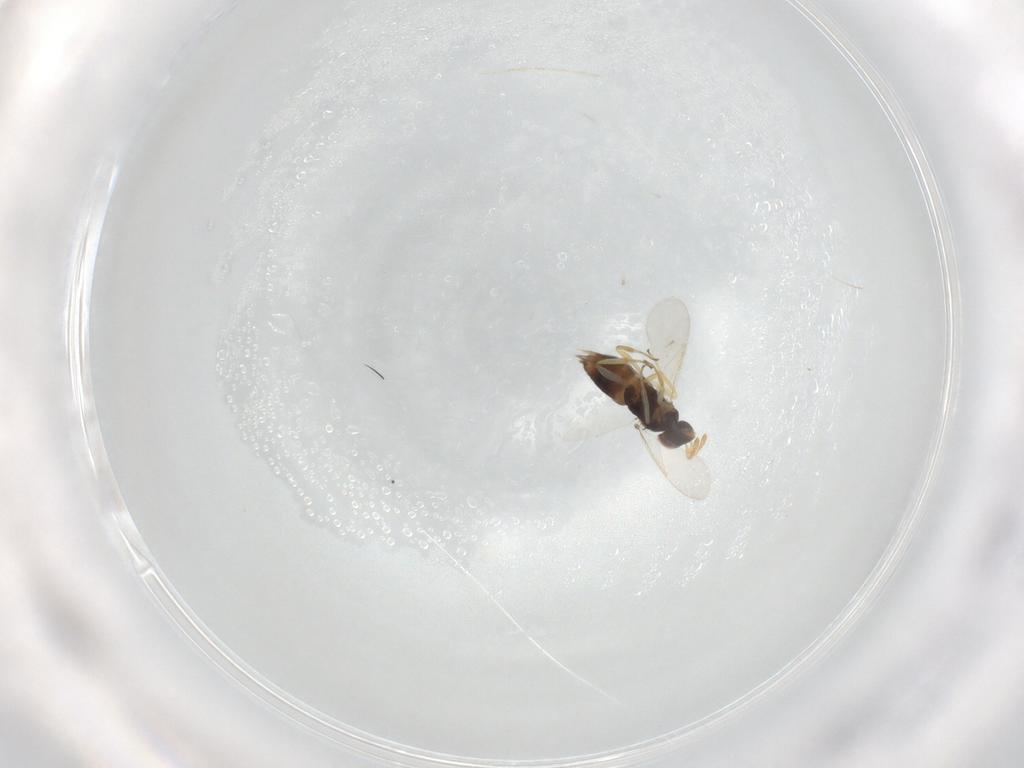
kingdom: Animalia
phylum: Arthropoda
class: Insecta
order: Hymenoptera
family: Aphelinidae
